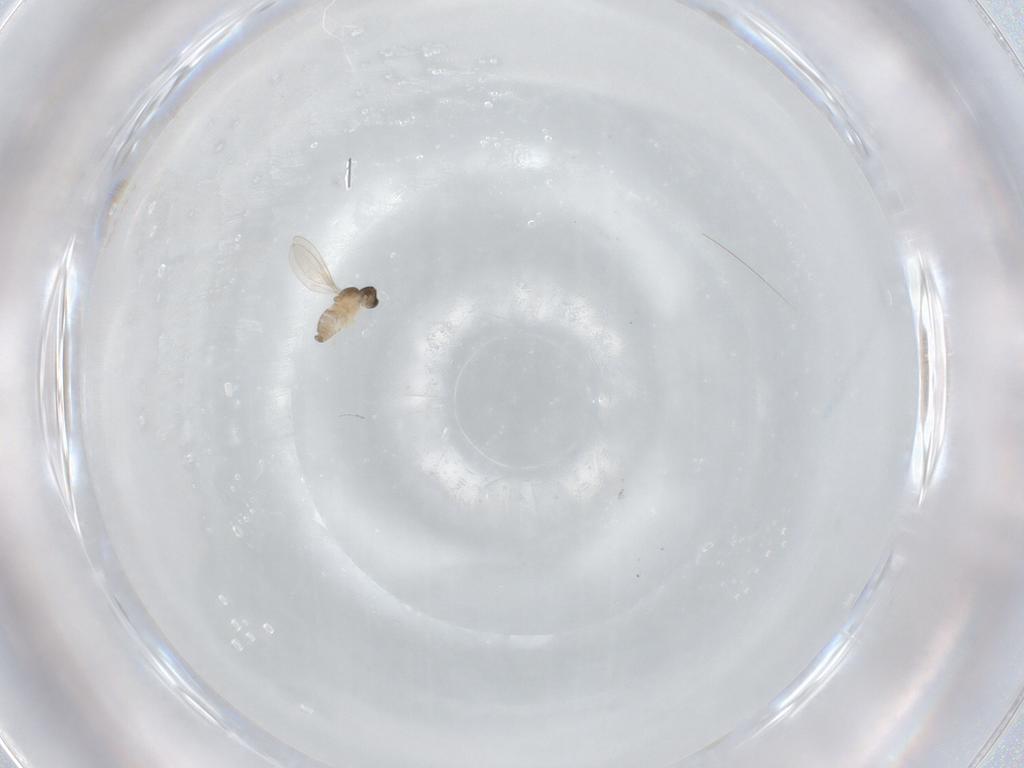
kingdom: Animalia
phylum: Arthropoda
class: Insecta
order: Diptera
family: Cecidomyiidae
